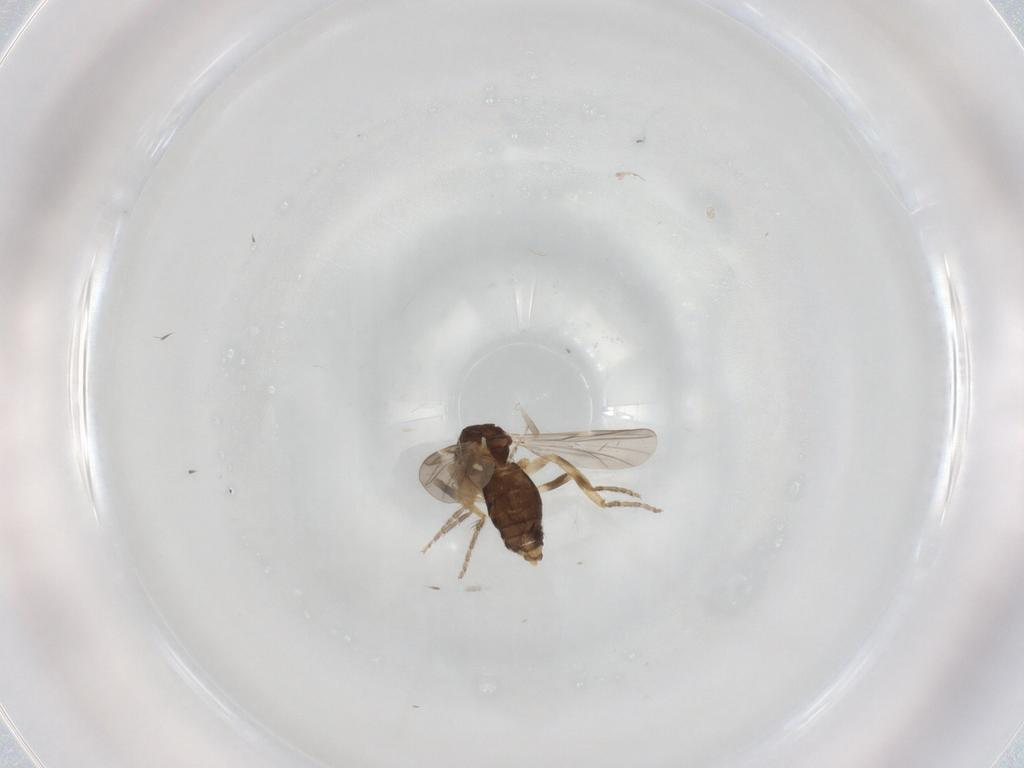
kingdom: Animalia
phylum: Arthropoda
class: Insecta
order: Diptera
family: Ceratopogonidae
